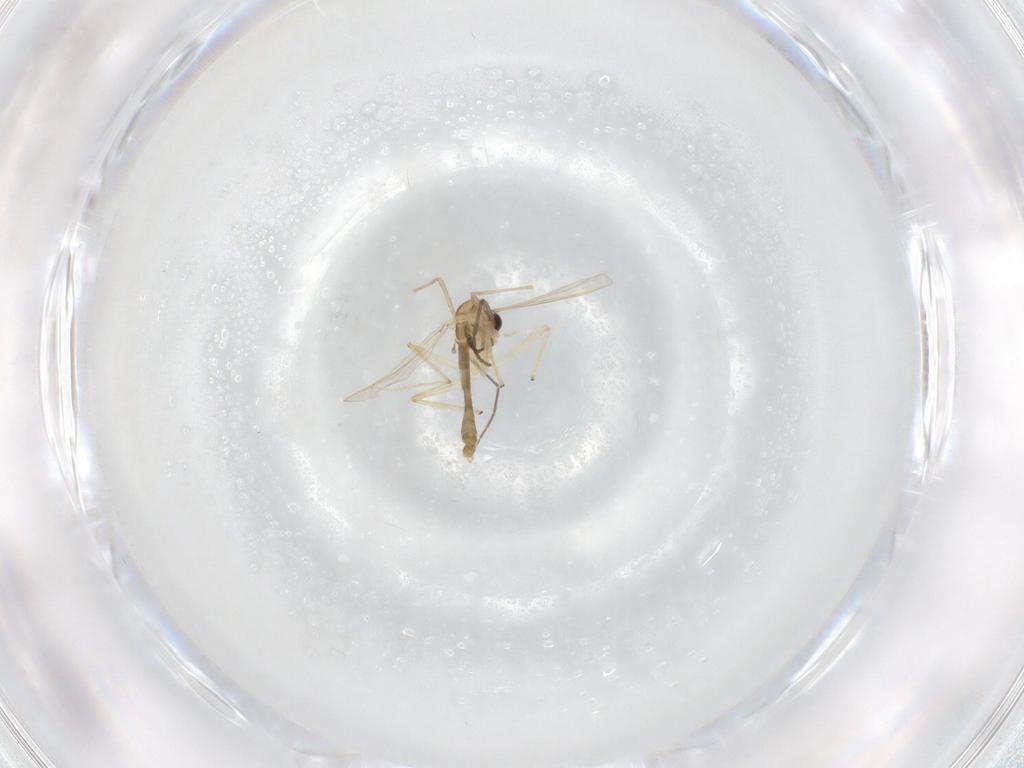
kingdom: Animalia
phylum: Arthropoda
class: Insecta
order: Diptera
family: Chironomidae
